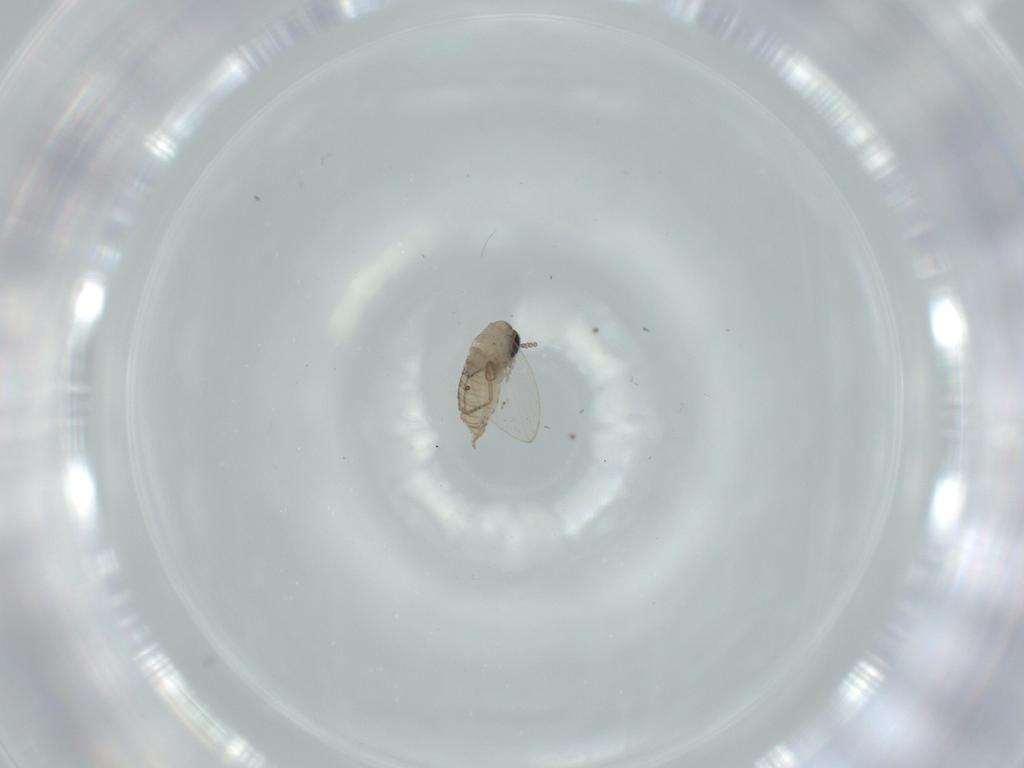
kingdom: Animalia
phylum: Arthropoda
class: Insecta
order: Diptera
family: Psychodidae
